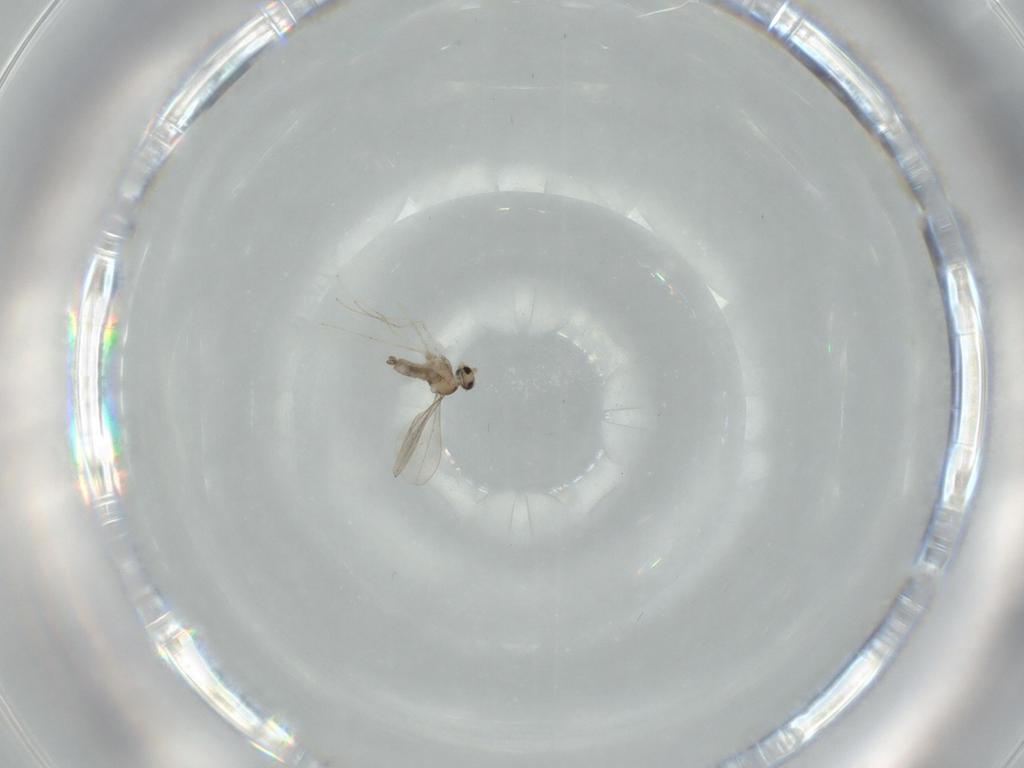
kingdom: Animalia
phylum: Arthropoda
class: Insecta
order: Diptera
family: Cecidomyiidae
